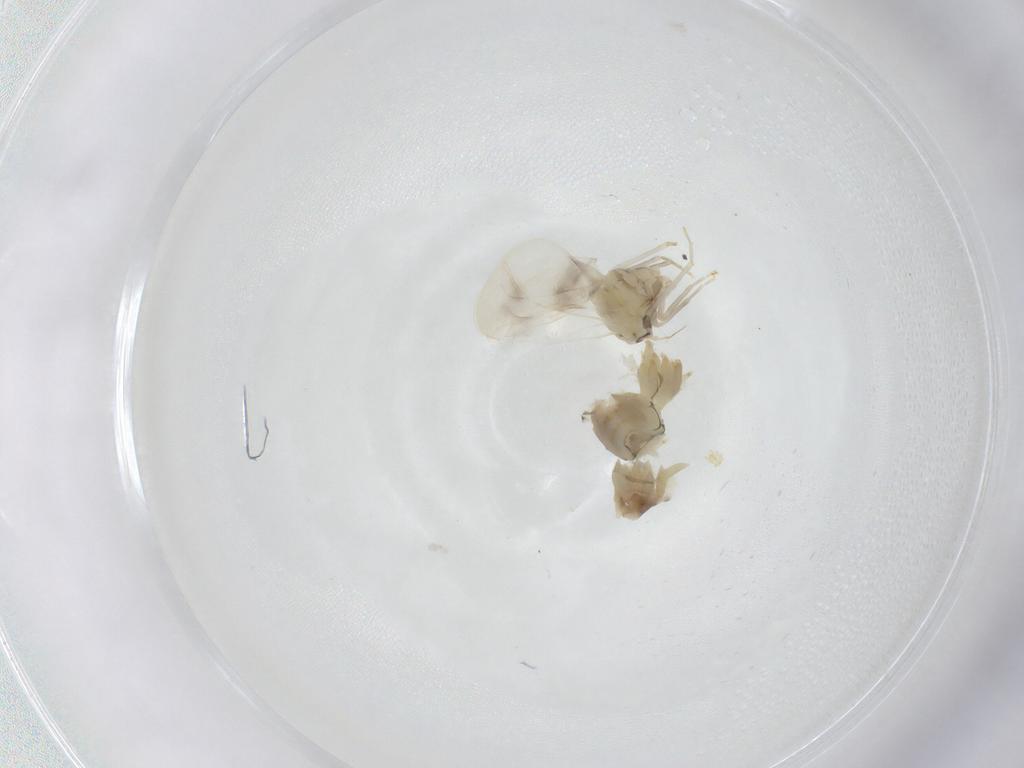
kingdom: Animalia
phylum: Arthropoda
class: Insecta
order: Hemiptera
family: Aleyrodidae
